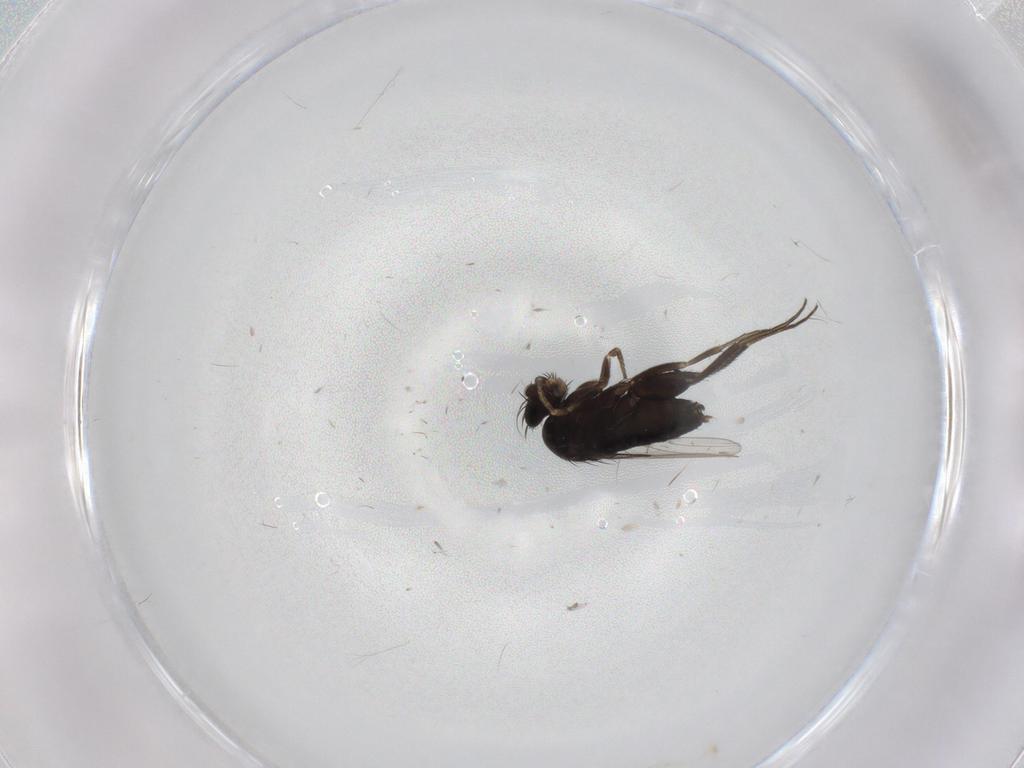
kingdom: Animalia
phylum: Arthropoda
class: Insecta
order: Diptera
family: Phoridae
